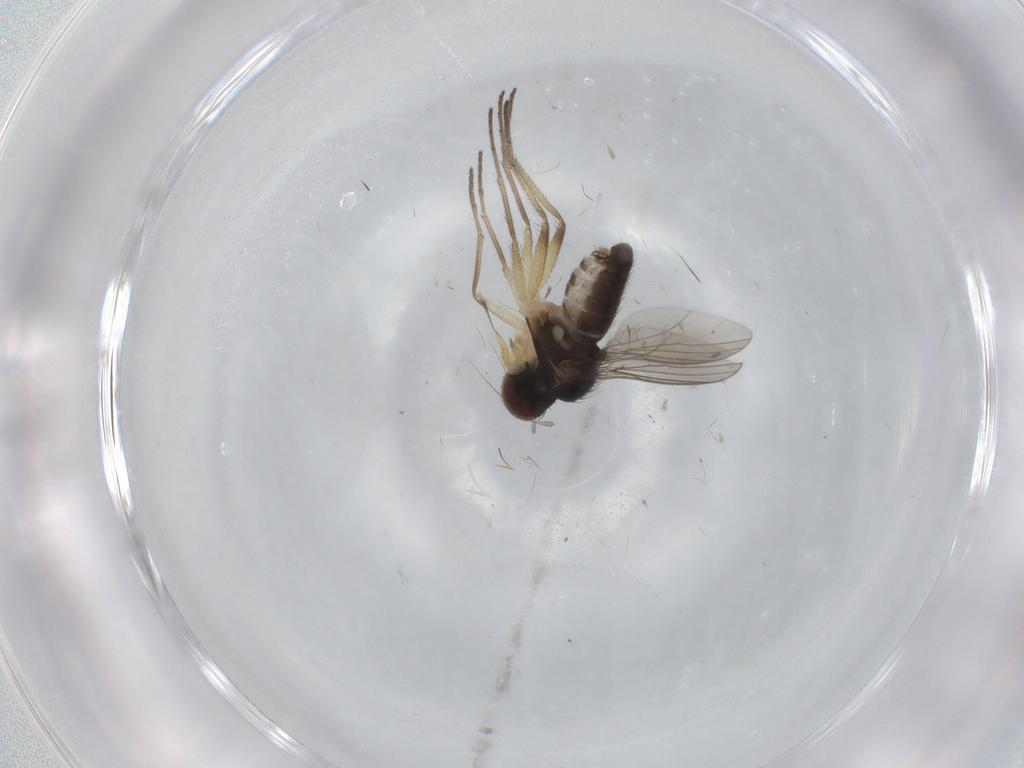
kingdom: Animalia
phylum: Arthropoda
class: Insecta
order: Diptera
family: Dolichopodidae
